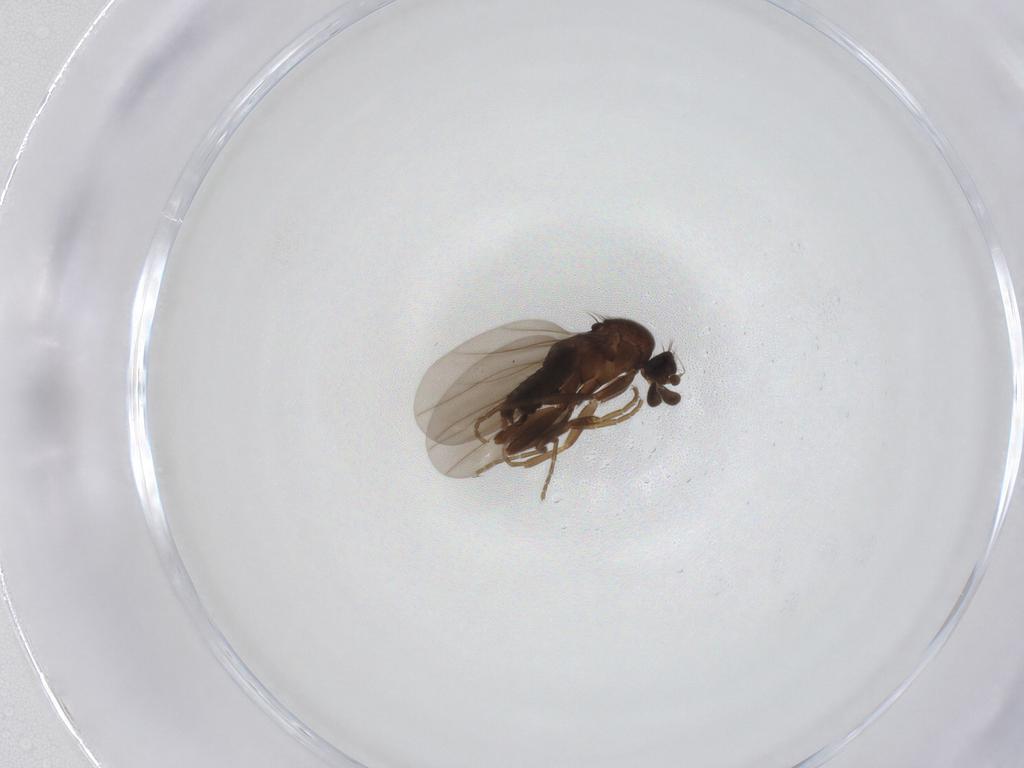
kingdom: Animalia
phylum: Arthropoda
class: Insecta
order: Diptera
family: Phoridae
